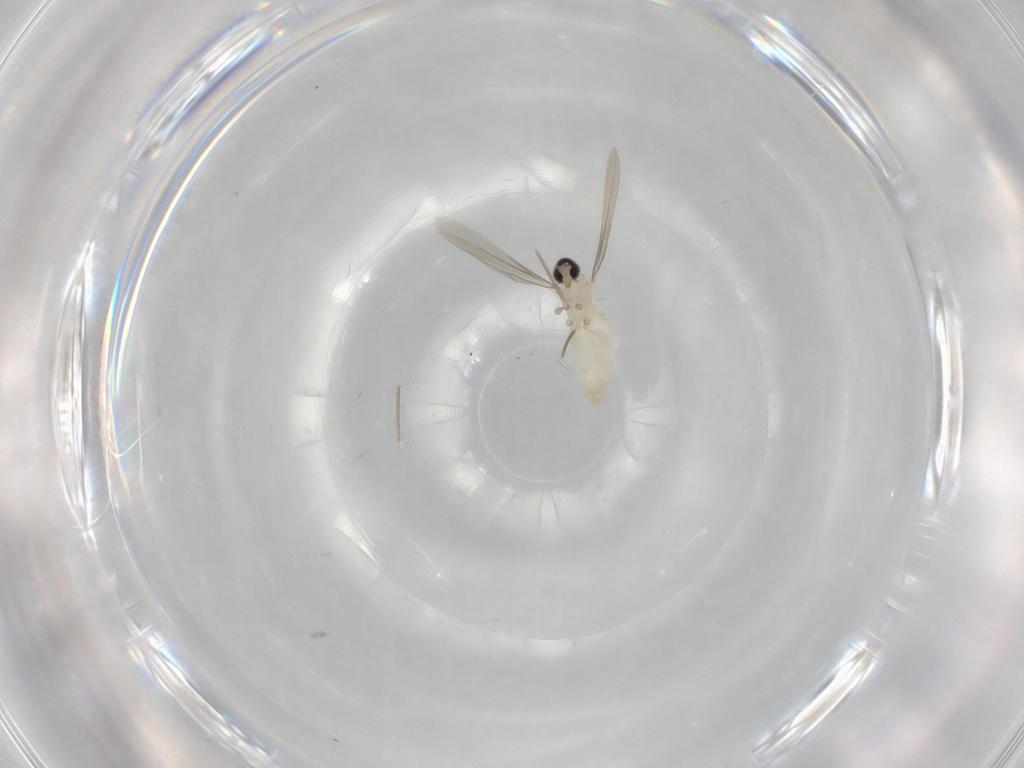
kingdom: Animalia
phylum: Arthropoda
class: Insecta
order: Diptera
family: Cecidomyiidae
